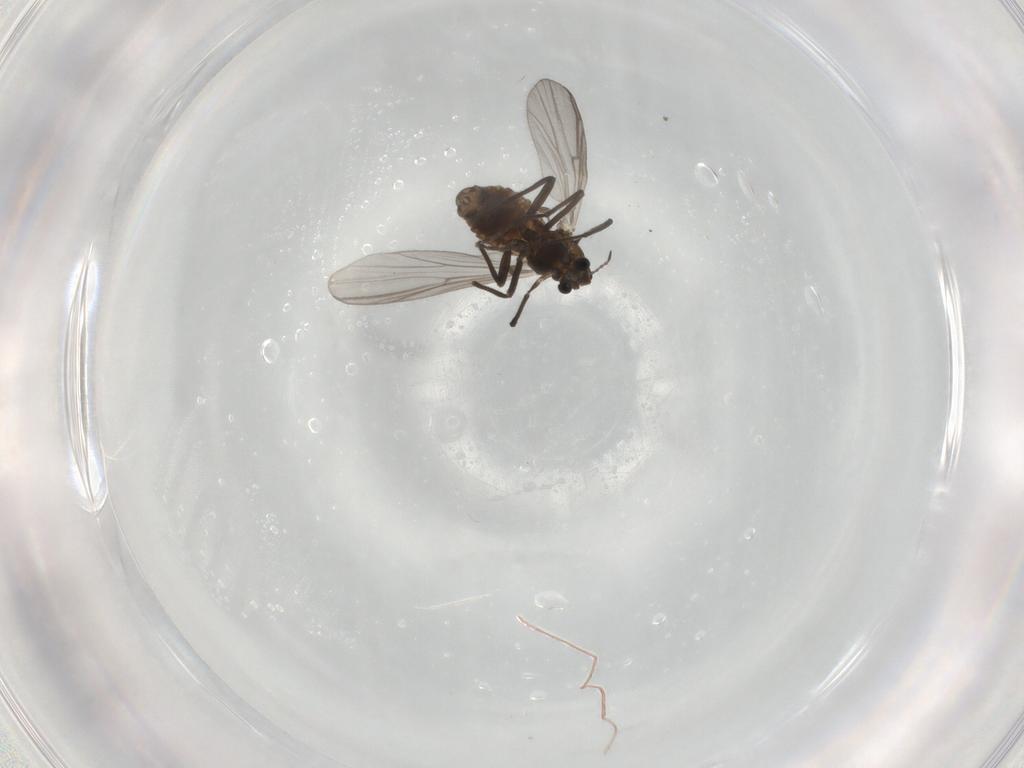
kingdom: Animalia
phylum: Arthropoda
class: Insecta
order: Diptera
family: Chironomidae
